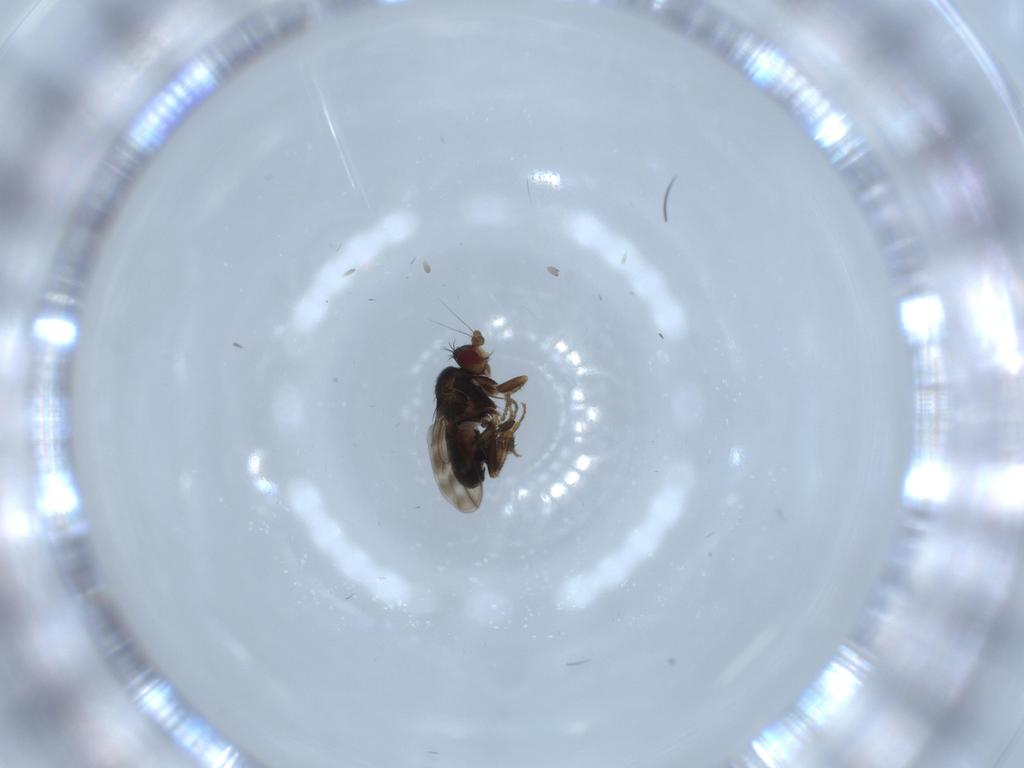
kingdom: Animalia
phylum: Arthropoda
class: Insecta
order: Diptera
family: Sphaeroceridae
